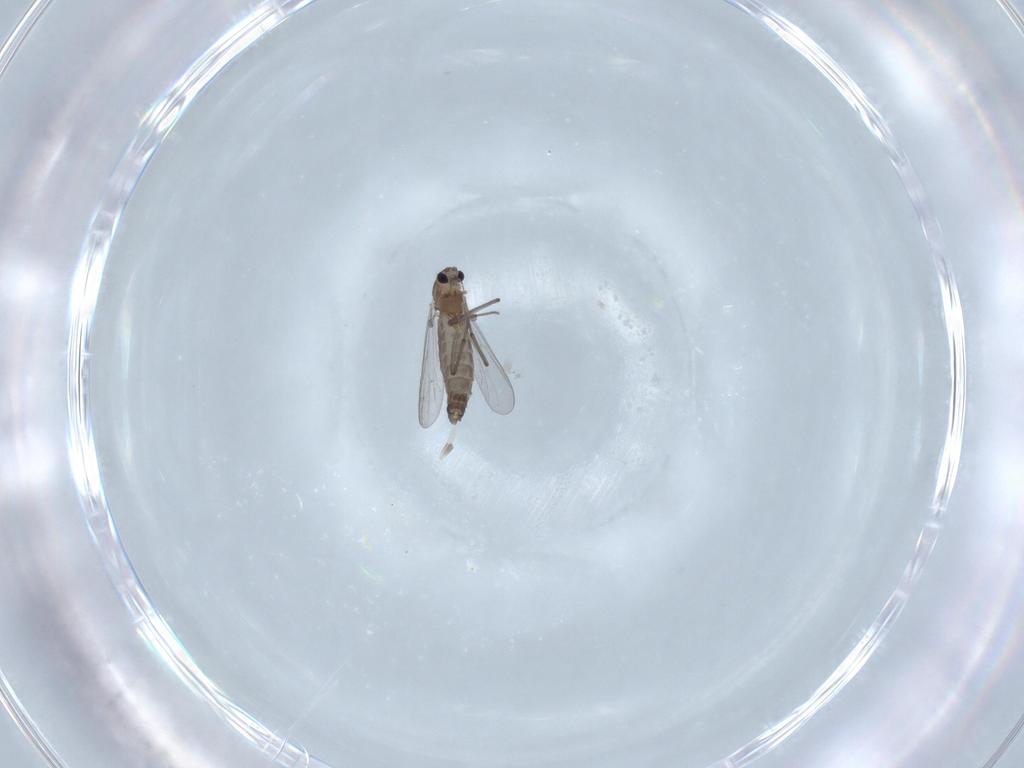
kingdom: Animalia
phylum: Arthropoda
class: Insecta
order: Diptera
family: Chironomidae
